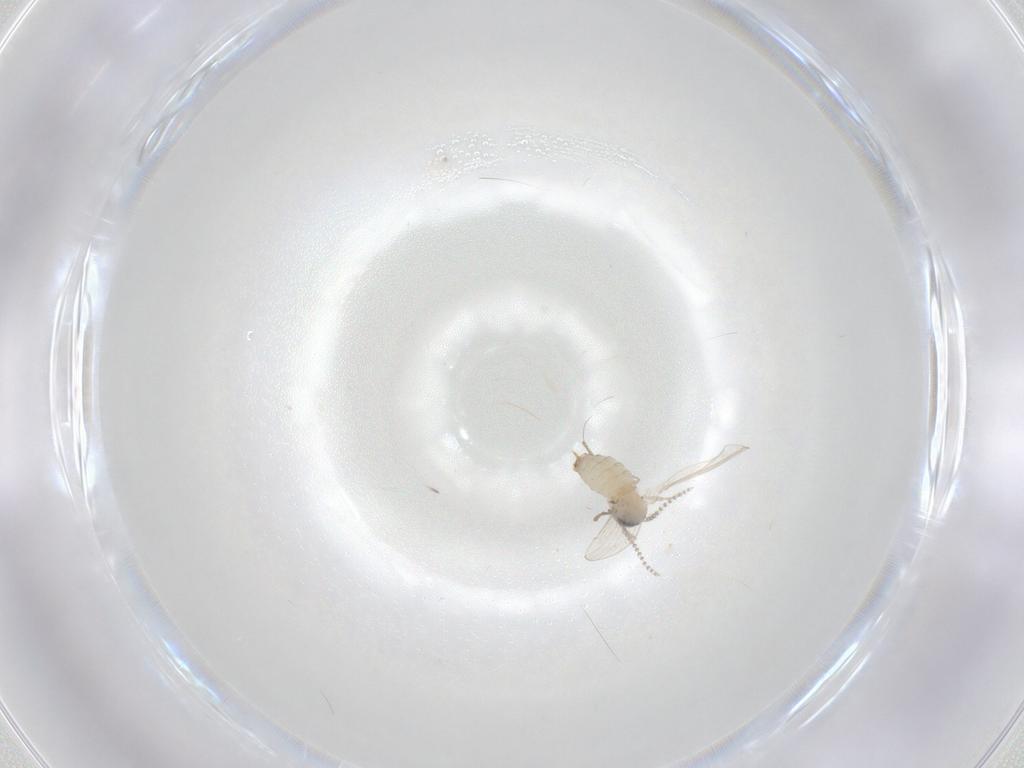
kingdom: Animalia
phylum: Arthropoda
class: Insecta
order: Diptera
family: Psychodidae
